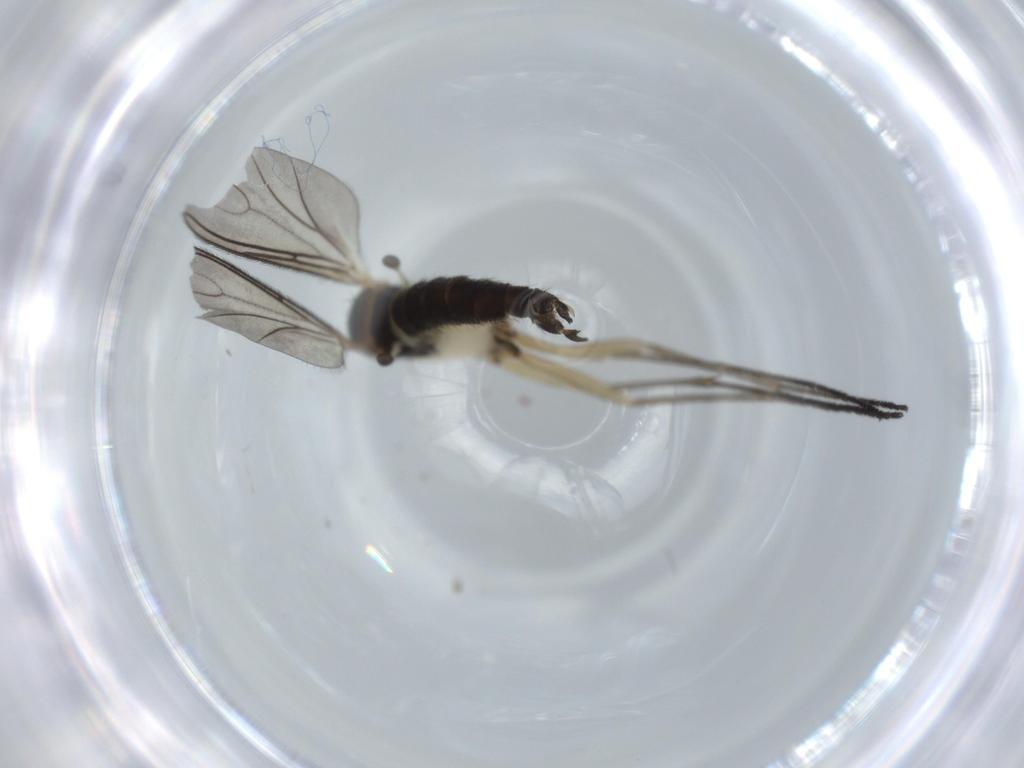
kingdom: Animalia
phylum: Arthropoda
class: Insecta
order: Diptera
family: Sciaridae
